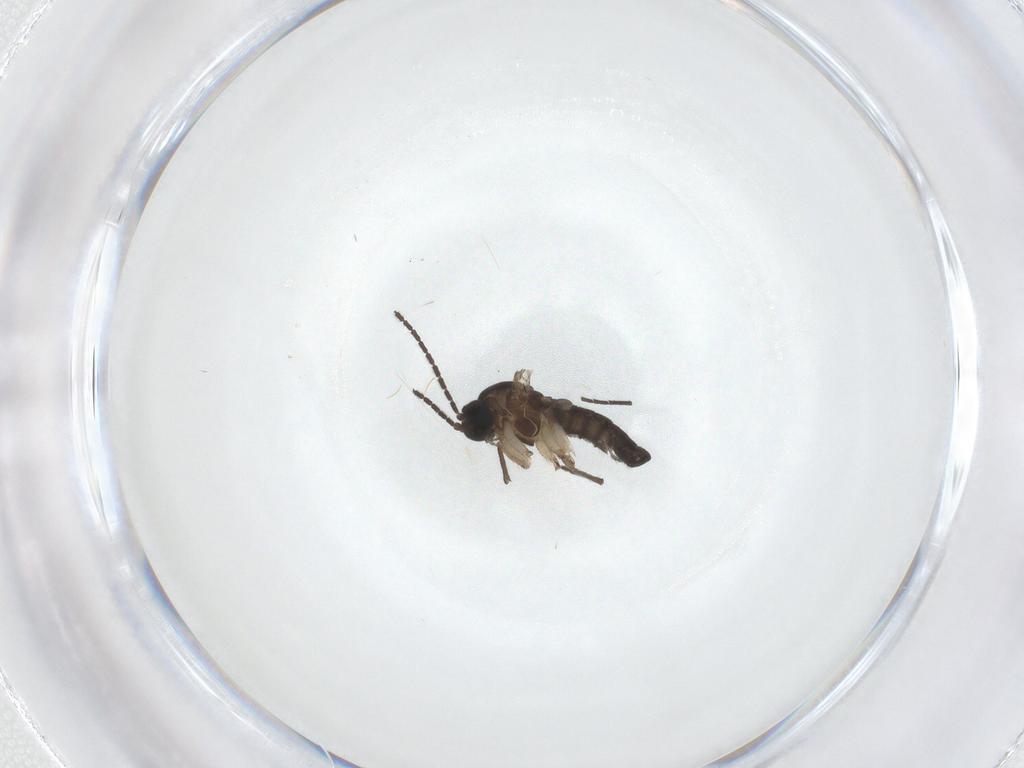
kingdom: Animalia
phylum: Arthropoda
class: Insecta
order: Diptera
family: Sciaridae
